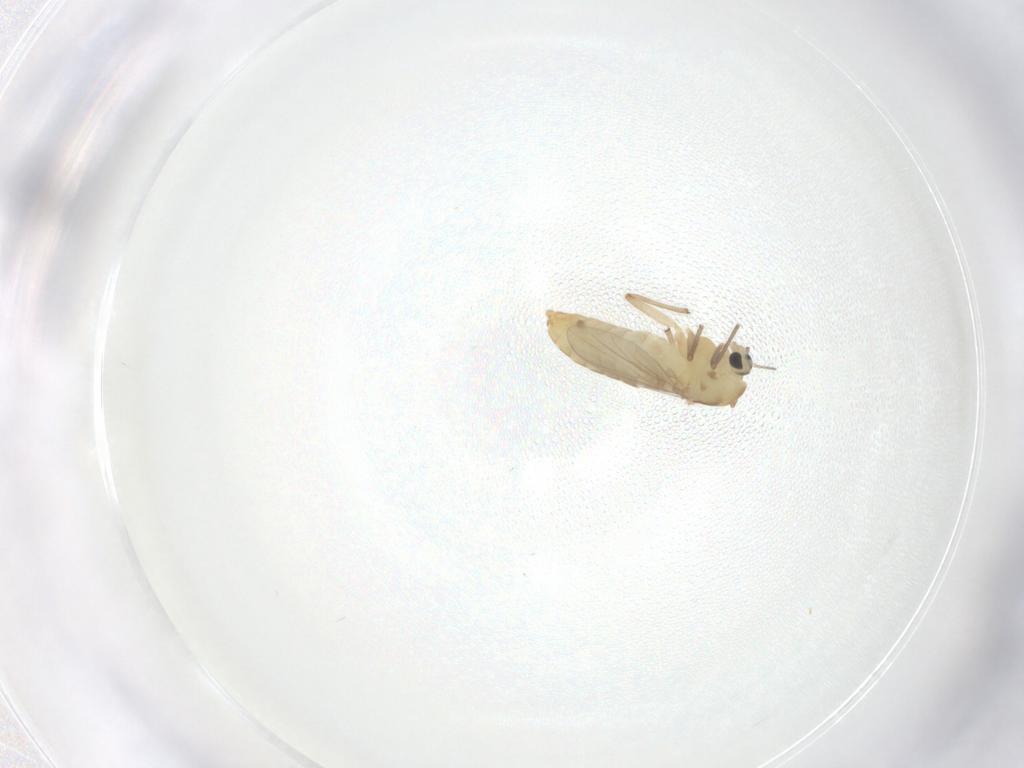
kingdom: Animalia
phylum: Arthropoda
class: Insecta
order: Diptera
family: Chironomidae
